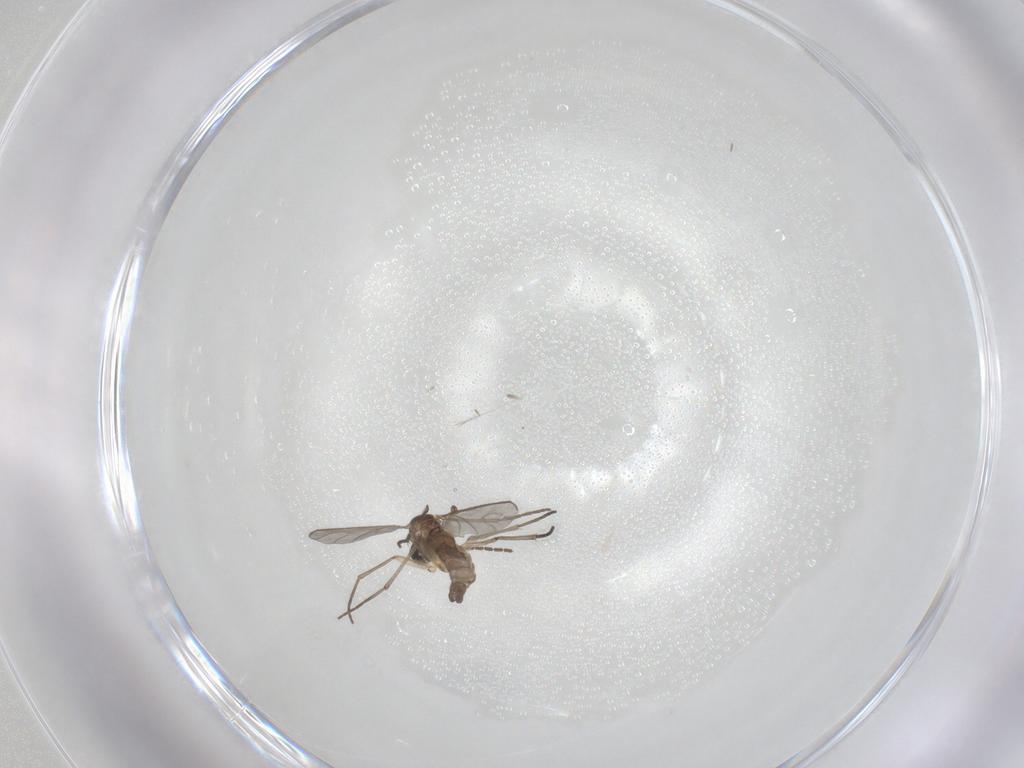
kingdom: Animalia
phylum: Arthropoda
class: Insecta
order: Diptera
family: Sciaridae
